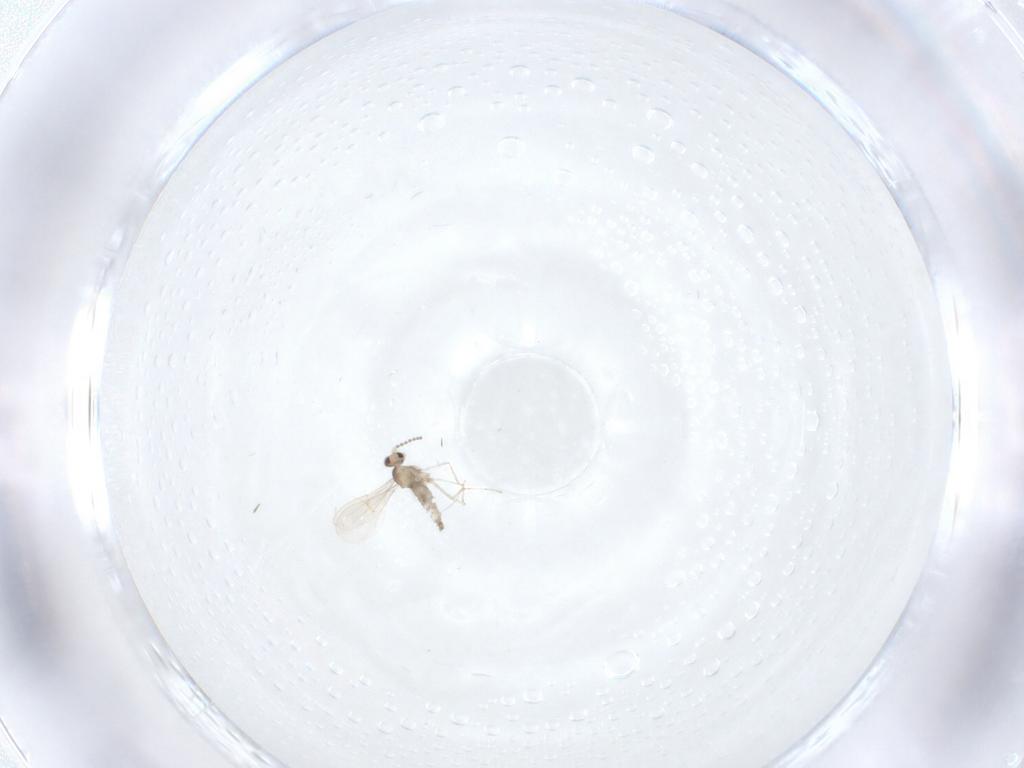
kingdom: Animalia
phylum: Arthropoda
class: Insecta
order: Diptera
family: Cecidomyiidae
